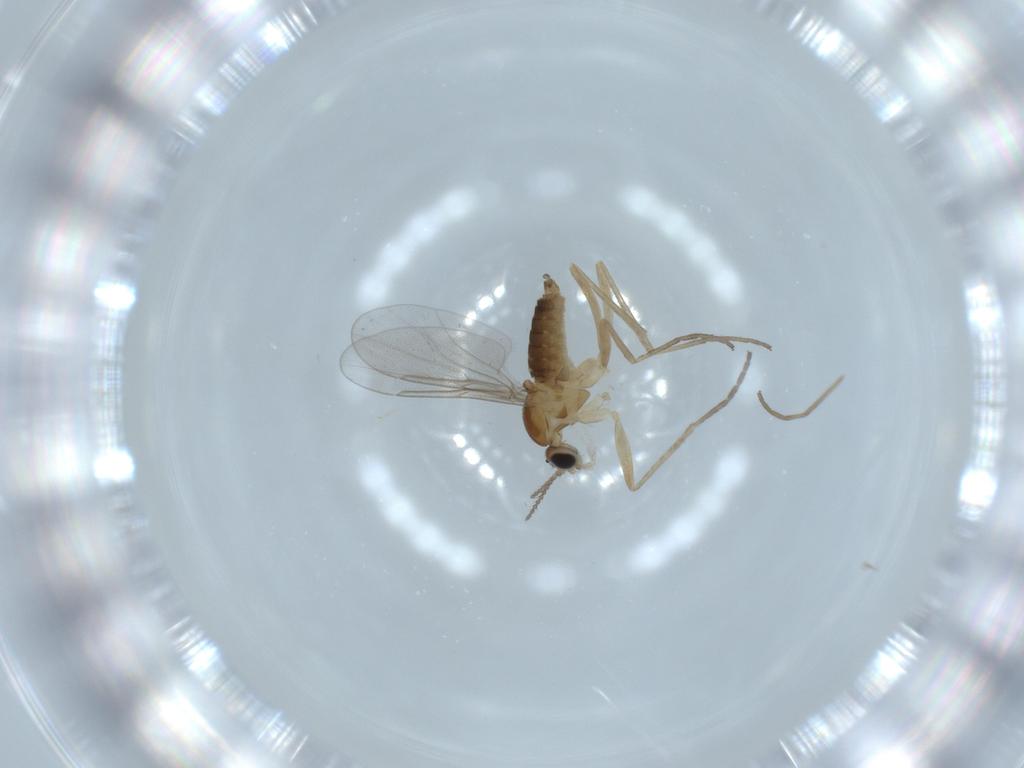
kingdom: Animalia
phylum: Arthropoda
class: Insecta
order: Diptera
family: Cecidomyiidae
